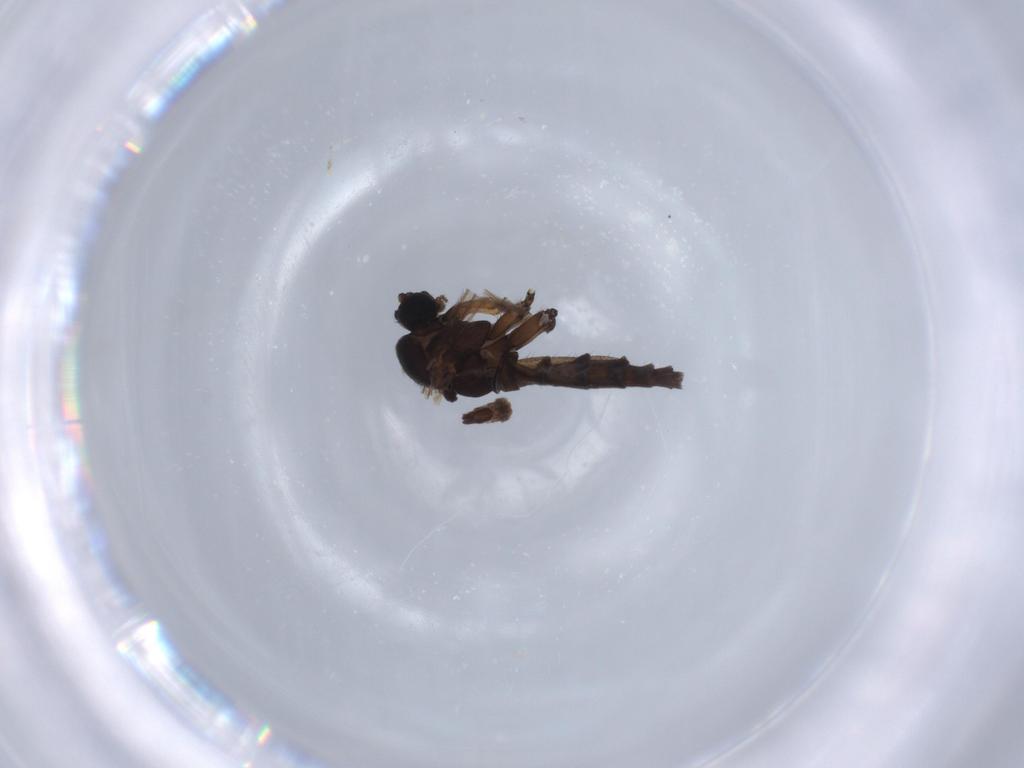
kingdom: Animalia
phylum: Arthropoda
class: Insecta
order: Diptera
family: Sciaridae
